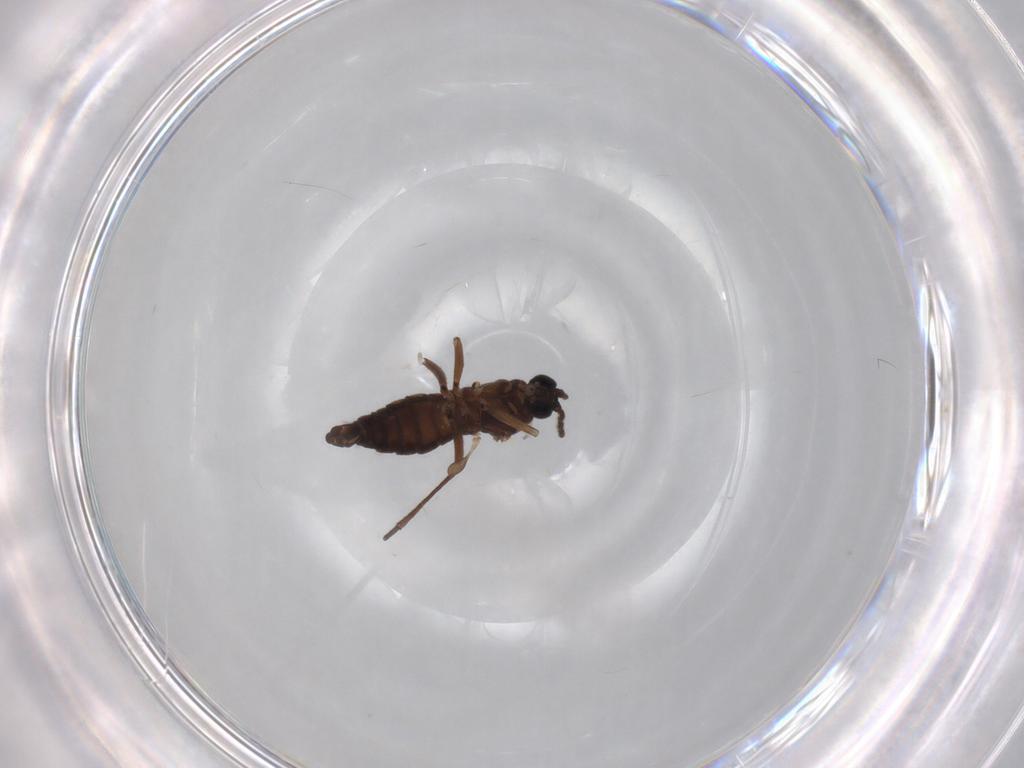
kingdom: Animalia
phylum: Arthropoda
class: Insecta
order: Diptera
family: Sciaridae
